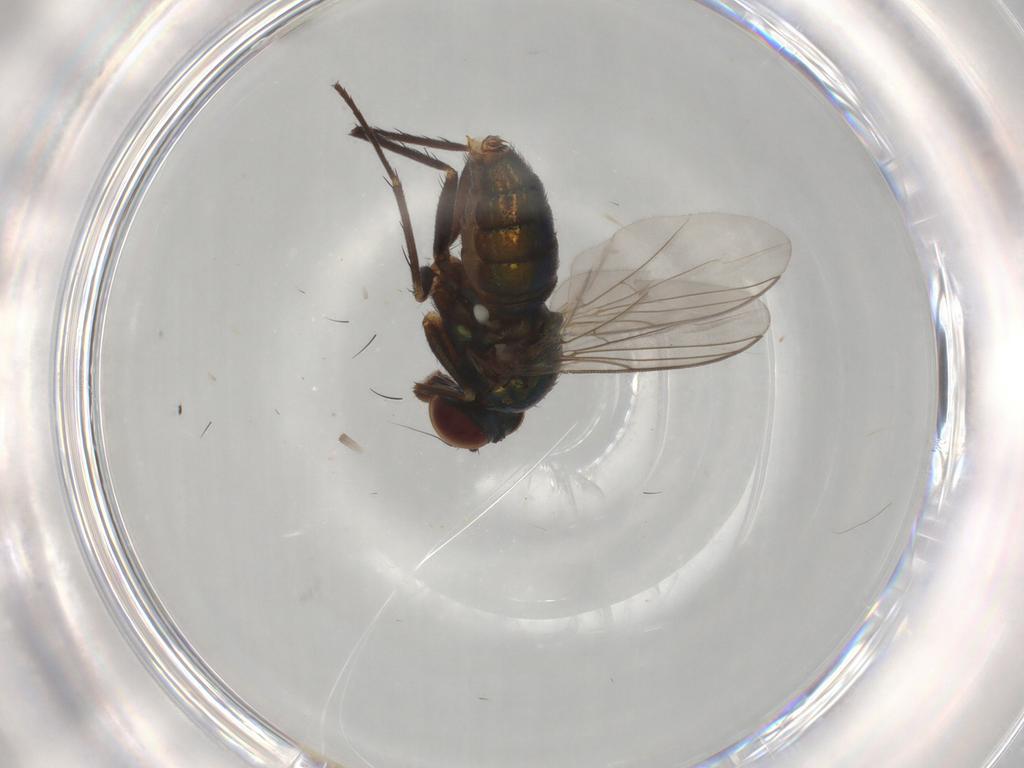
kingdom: Animalia
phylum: Arthropoda
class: Insecta
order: Diptera
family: Dolichopodidae
